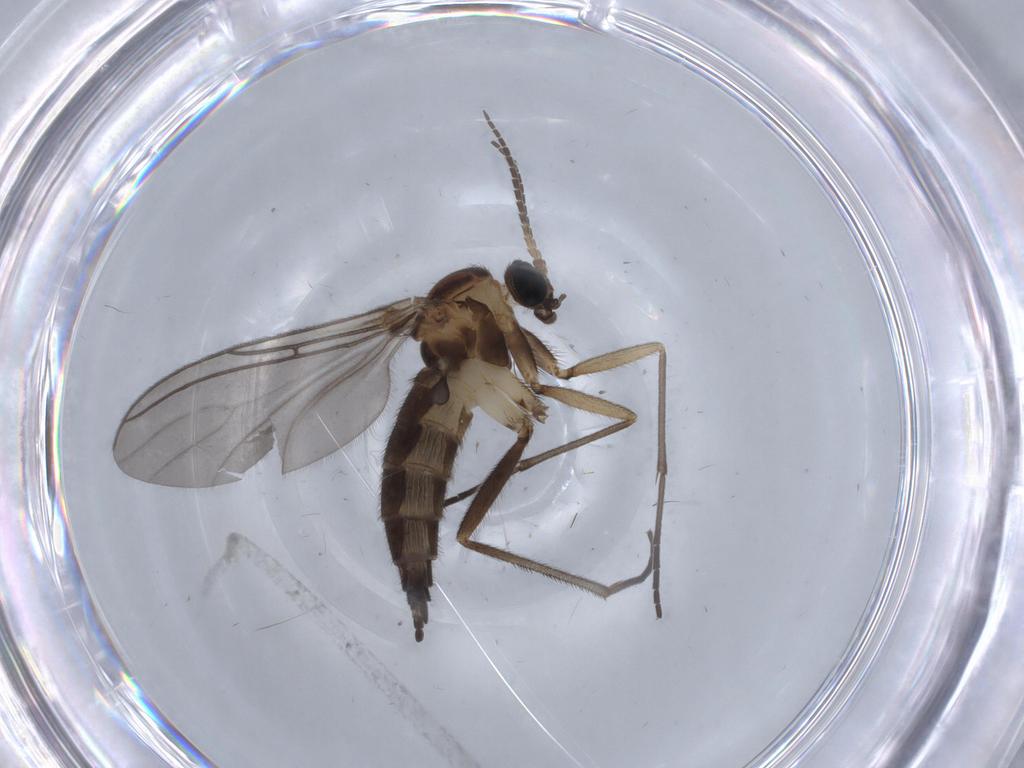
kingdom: Animalia
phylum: Arthropoda
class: Insecta
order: Diptera
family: Sciaridae
